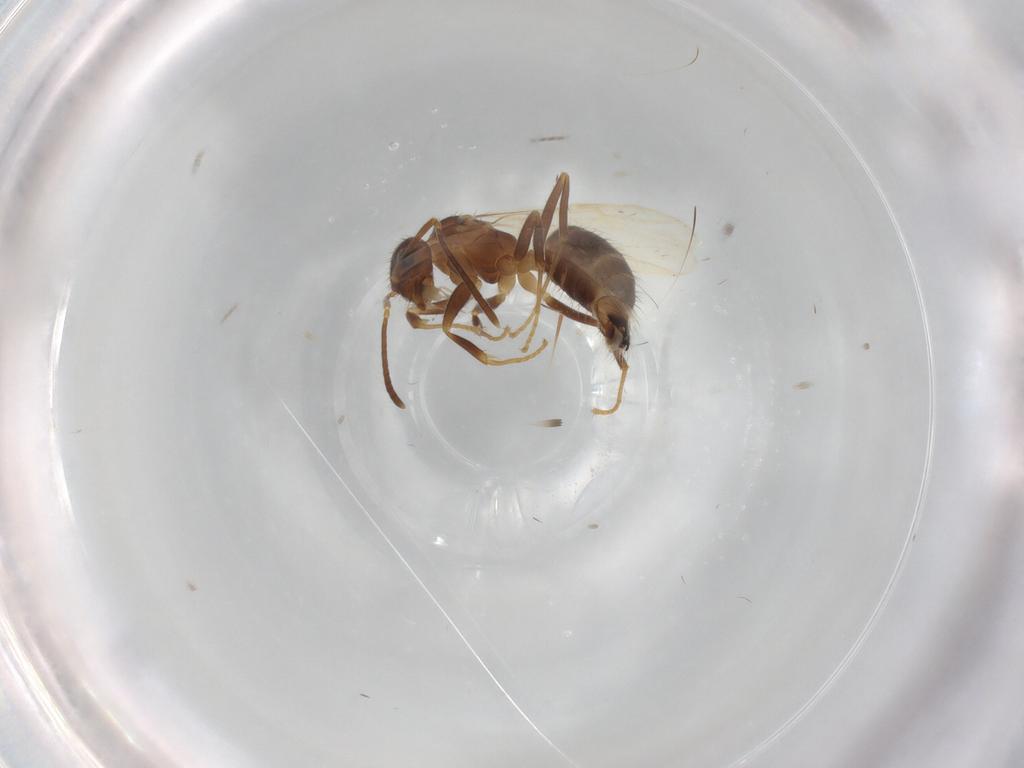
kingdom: Animalia
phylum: Arthropoda
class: Insecta
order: Hymenoptera
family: Formicidae
